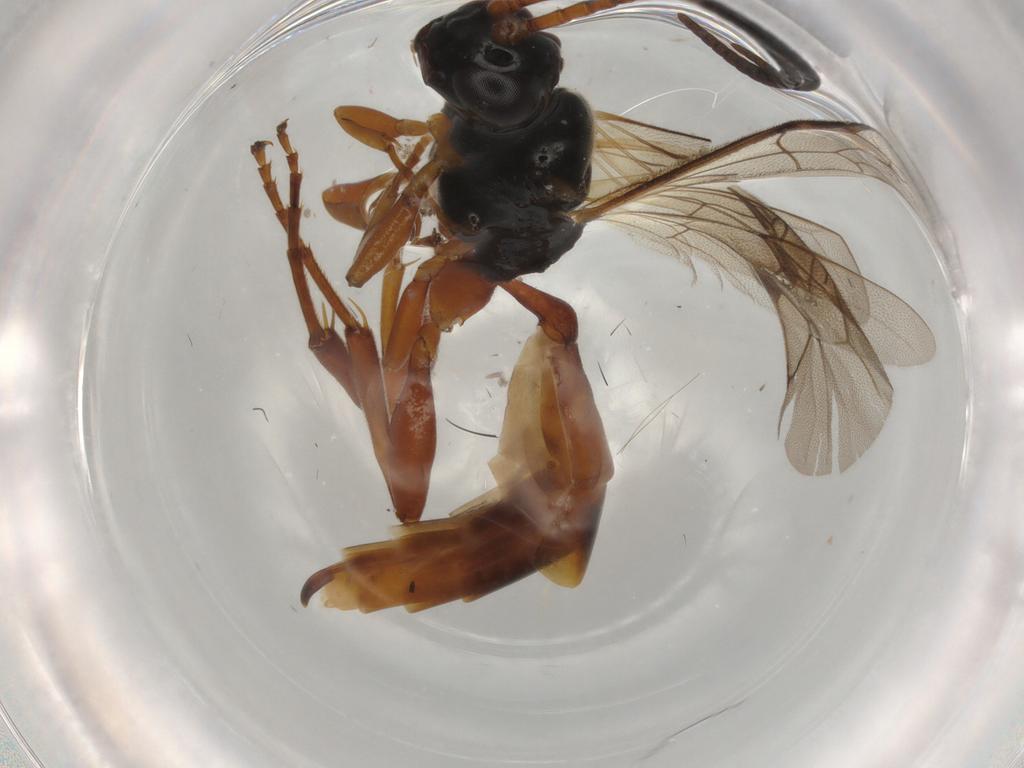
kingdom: Animalia
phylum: Arthropoda
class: Insecta
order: Hymenoptera
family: Ichneumonidae
